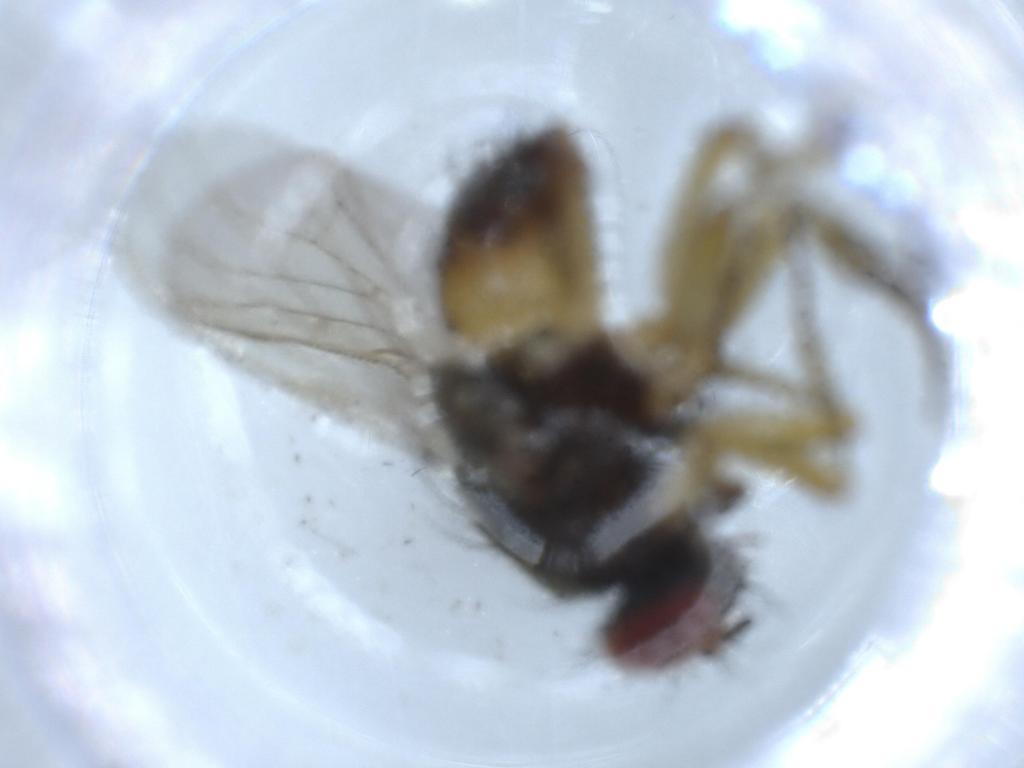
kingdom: Animalia
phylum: Arthropoda
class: Insecta
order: Diptera
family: Muscidae
